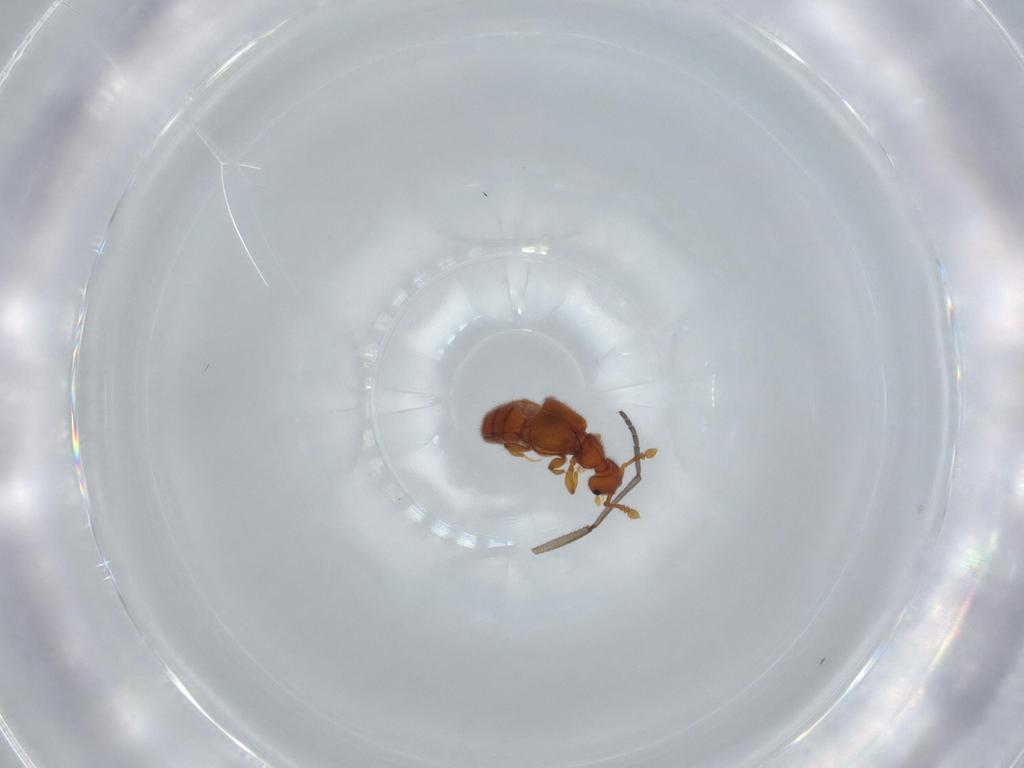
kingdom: Animalia
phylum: Arthropoda
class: Insecta
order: Coleoptera
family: Staphylinidae
